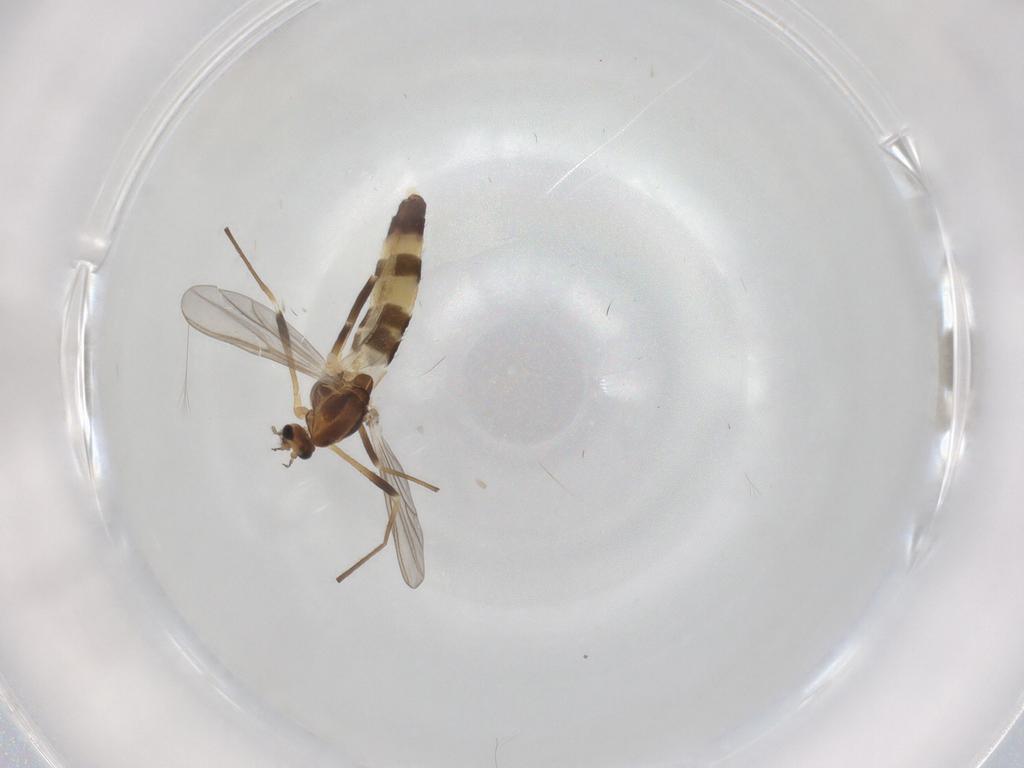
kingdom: Animalia
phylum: Arthropoda
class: Insecta
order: Diptera
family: Chironomidae
